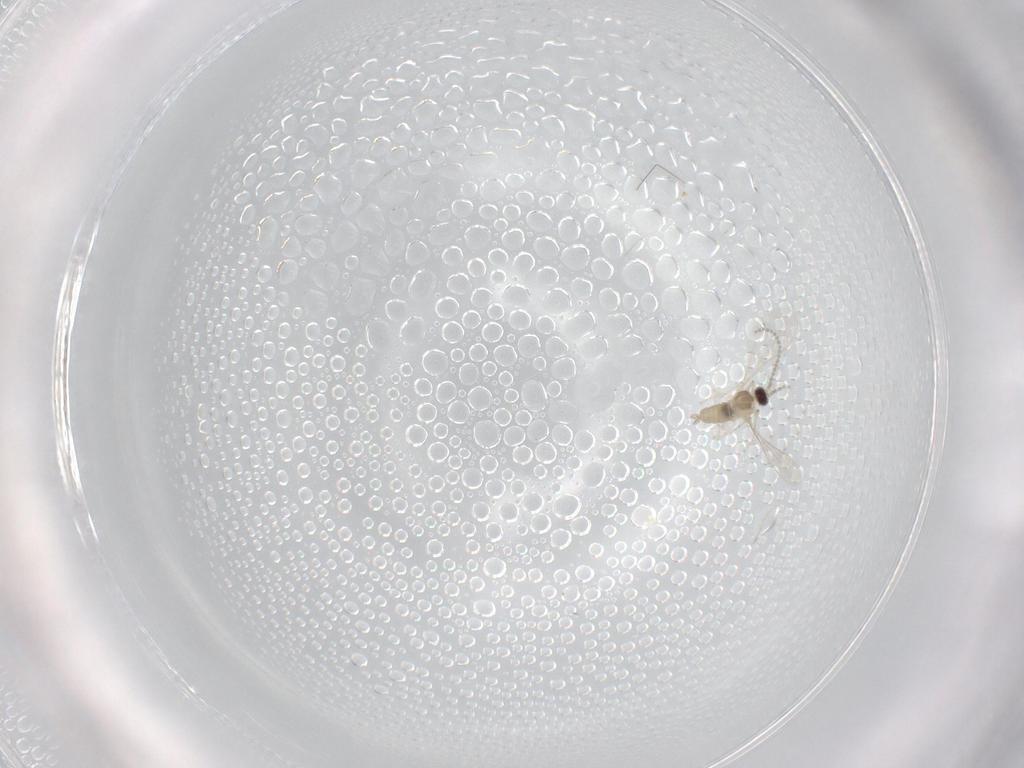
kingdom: Animalia
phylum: Arthropoda
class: Insecta
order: Diptera
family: Cecidomyiidae
